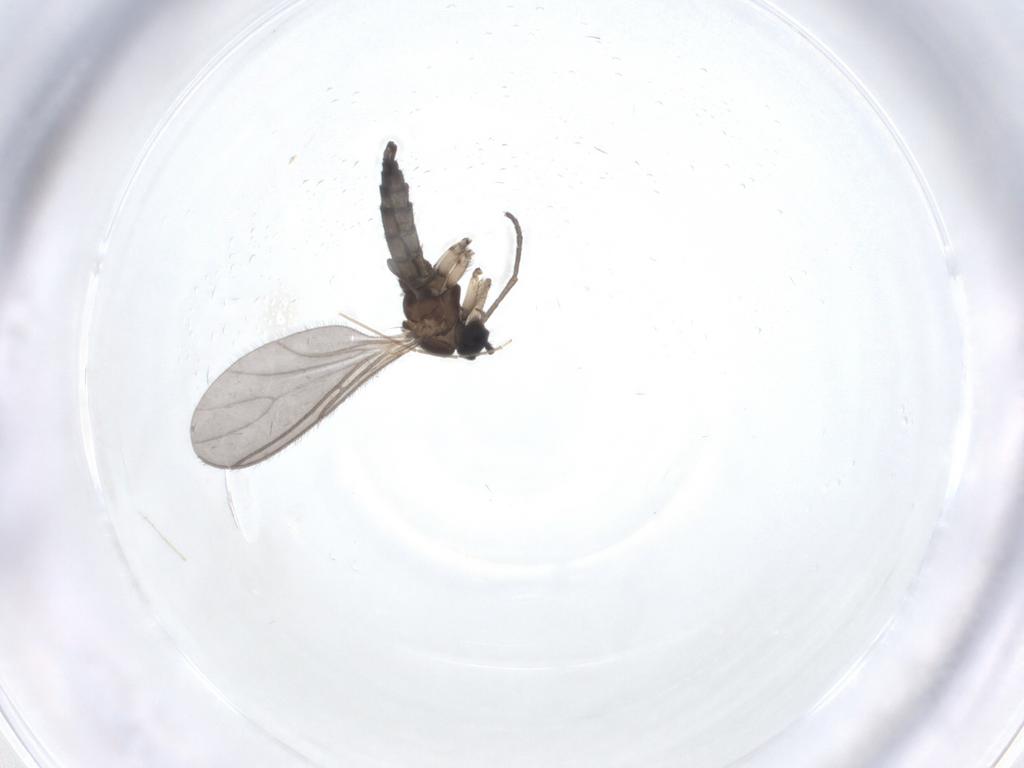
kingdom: Animalia
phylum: Arthropoda
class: Insecta
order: Diptera
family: Sciaridae
